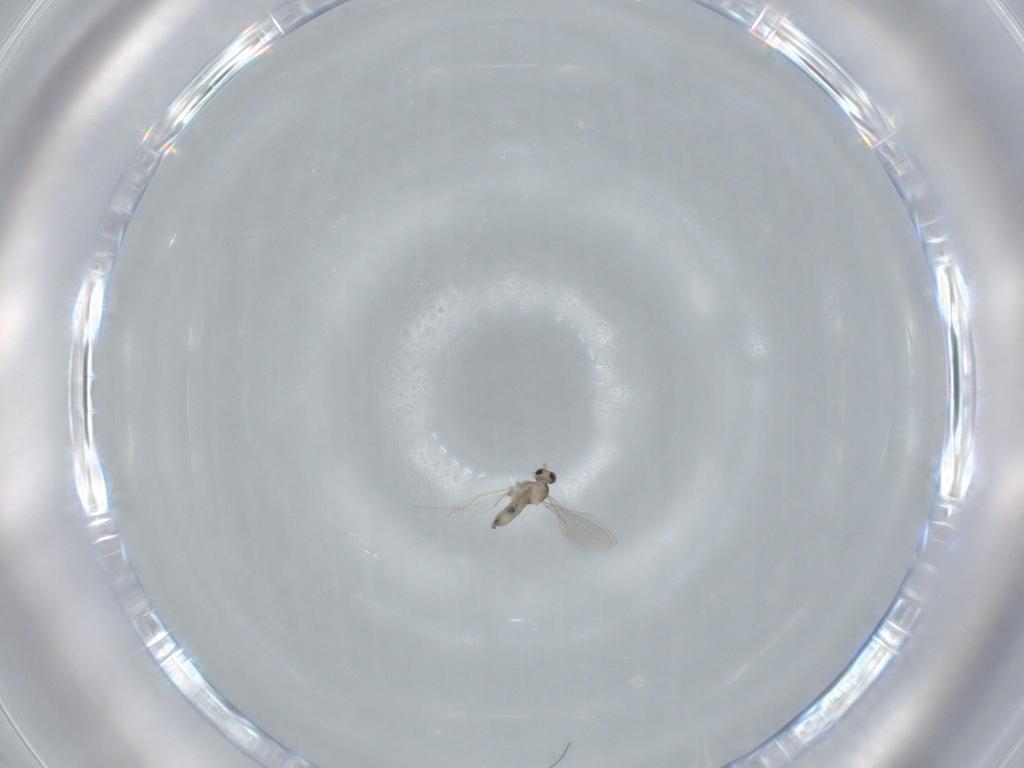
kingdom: Animalia
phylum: Arthropoda
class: Insecta
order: Diptera
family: Cecidomyiidae
